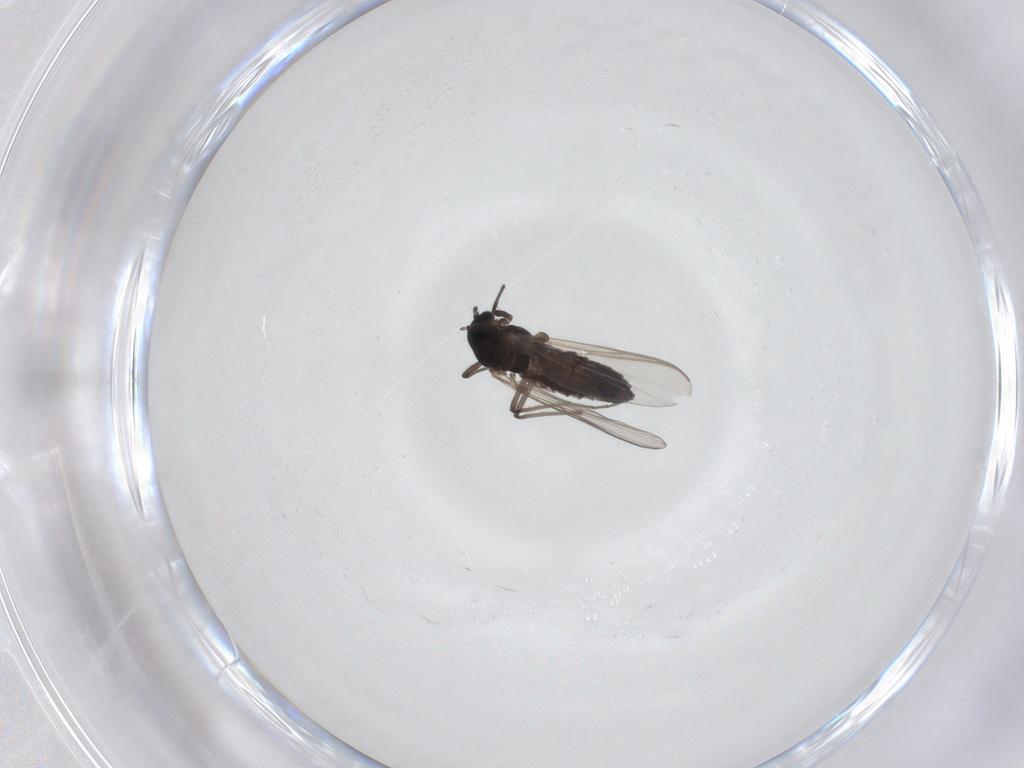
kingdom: Animalia
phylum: Arthropoda
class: Insecta
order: Diptera
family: Chironomidae
